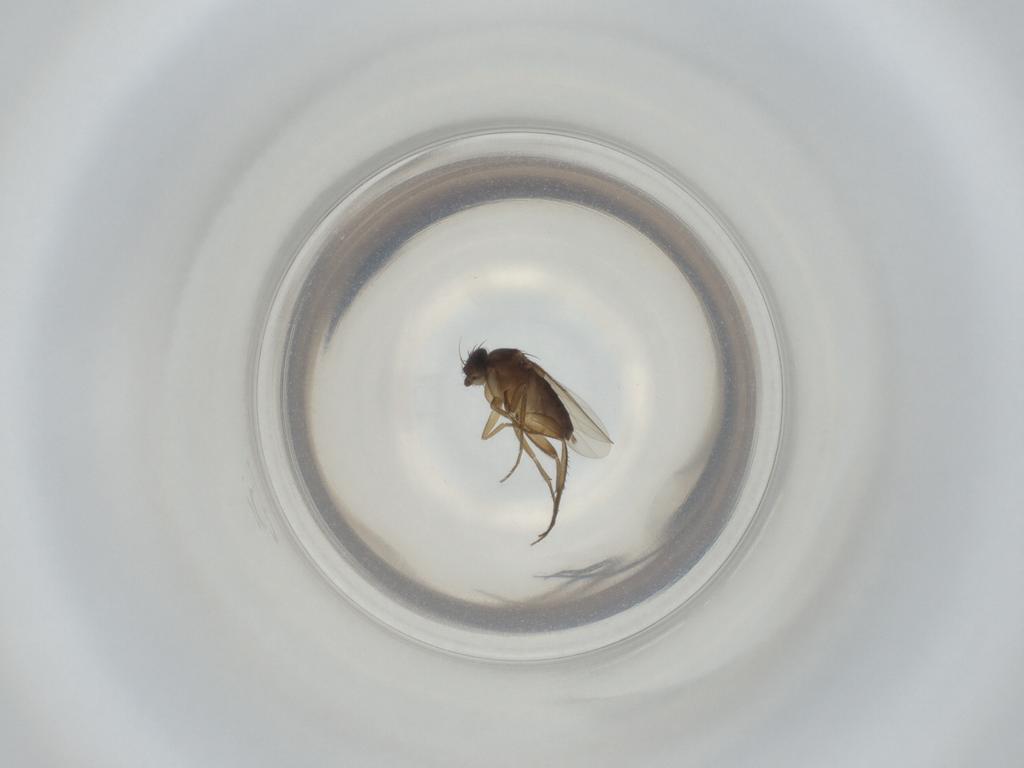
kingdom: Animalia
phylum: Arthropoda
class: Insecta
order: Diptera
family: Phoridae
